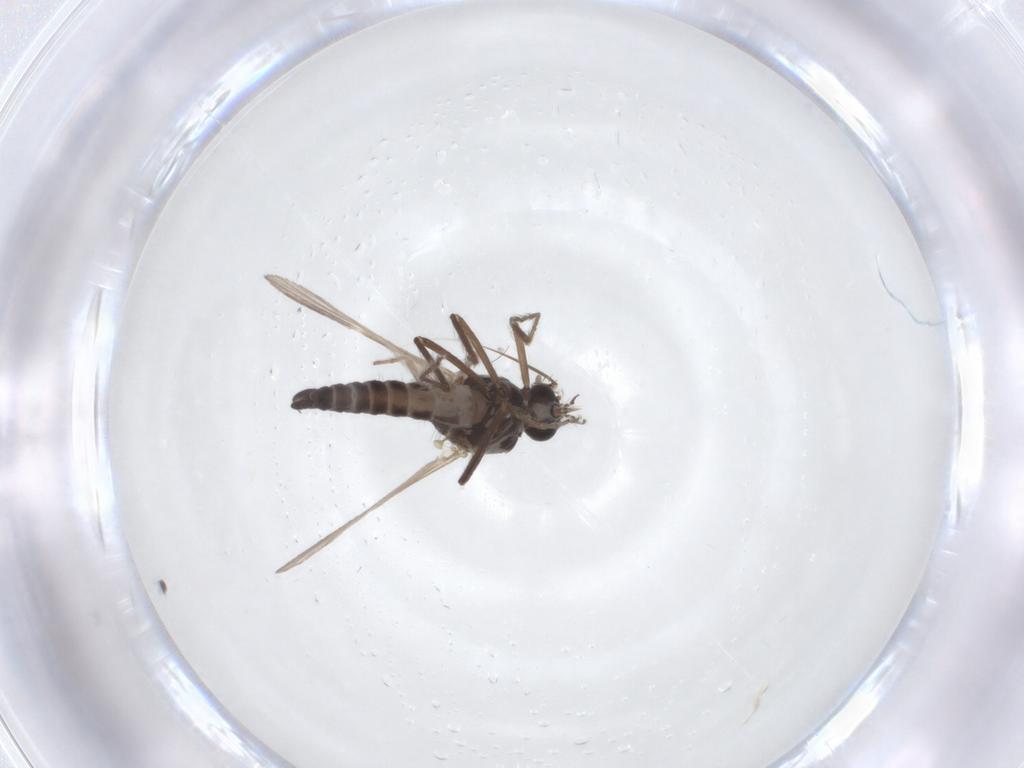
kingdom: Animalia
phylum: Arthropoda
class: Insecta
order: Diptera
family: Ceratopogonidae
